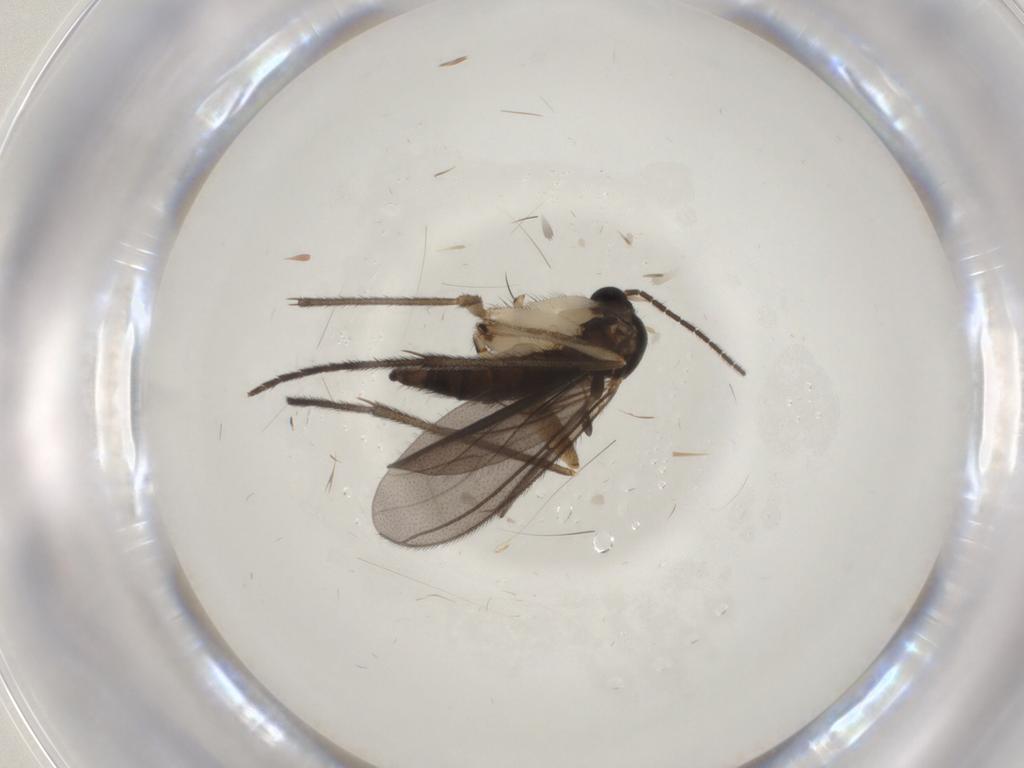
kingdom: Animalia
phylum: Arthropoda
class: Insecta
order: Diptera
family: Sciaridae
